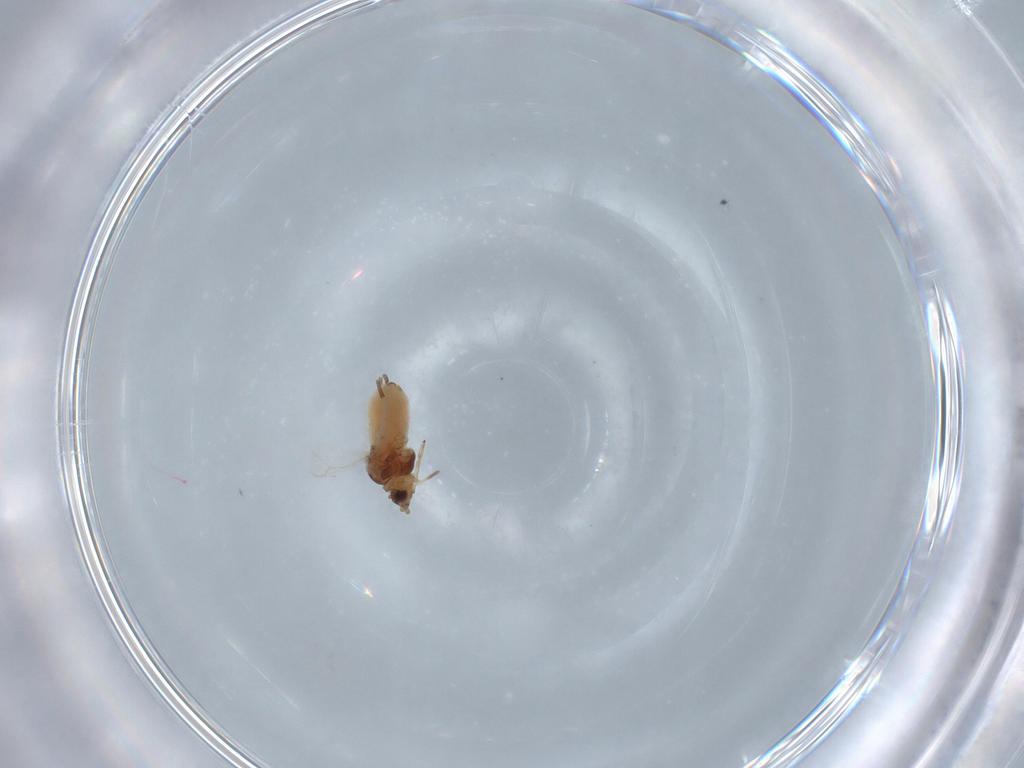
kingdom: Animalia
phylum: Arthropoda
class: Insecta
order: Hemiptera
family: Aphididae
